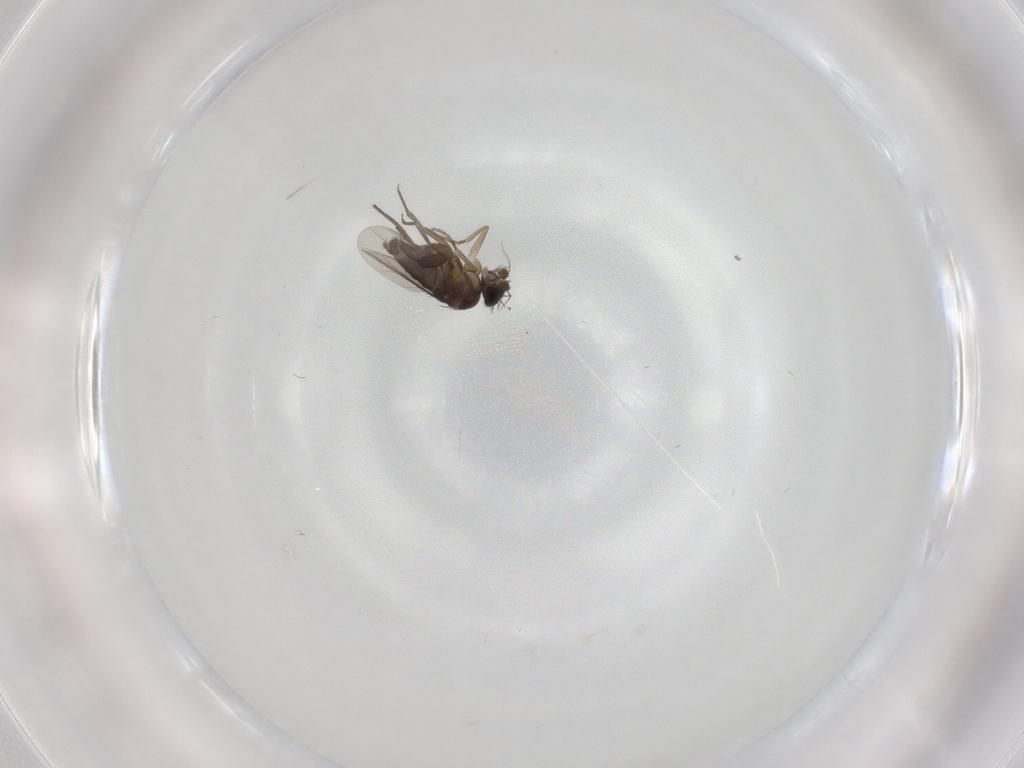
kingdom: Animalia
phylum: Arthropoda
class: Insecta
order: Diptera
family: Phoridae
